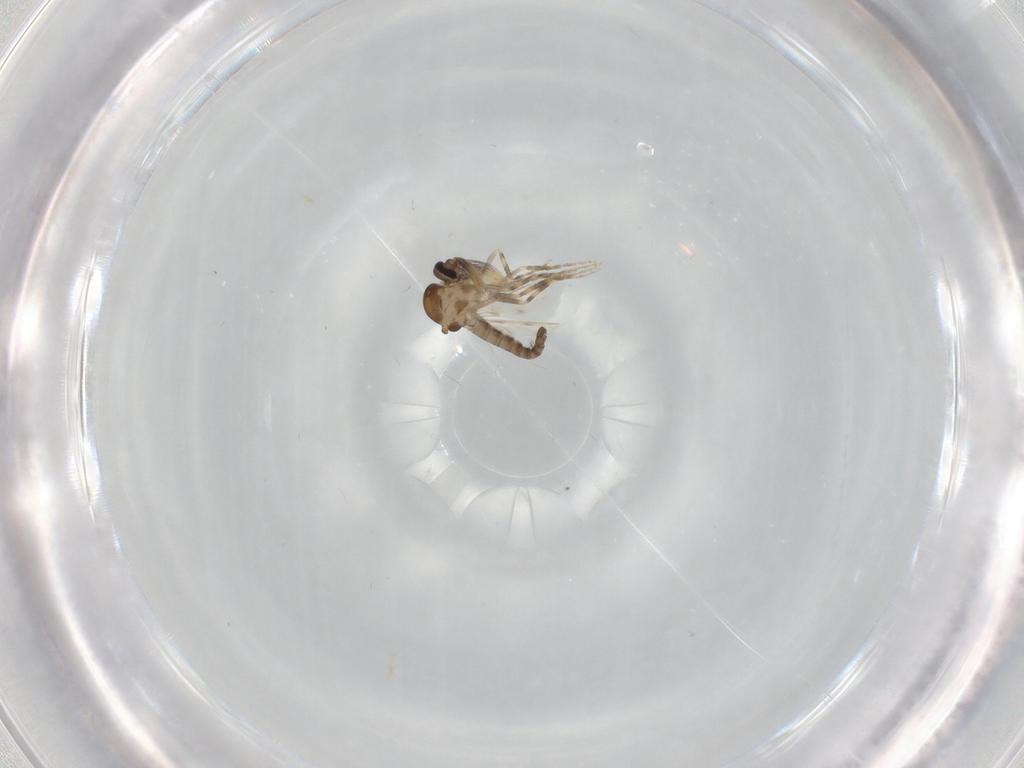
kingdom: Animalia
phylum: Arthropoda
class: Insecta
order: Diptera
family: Ceratopogonidae
